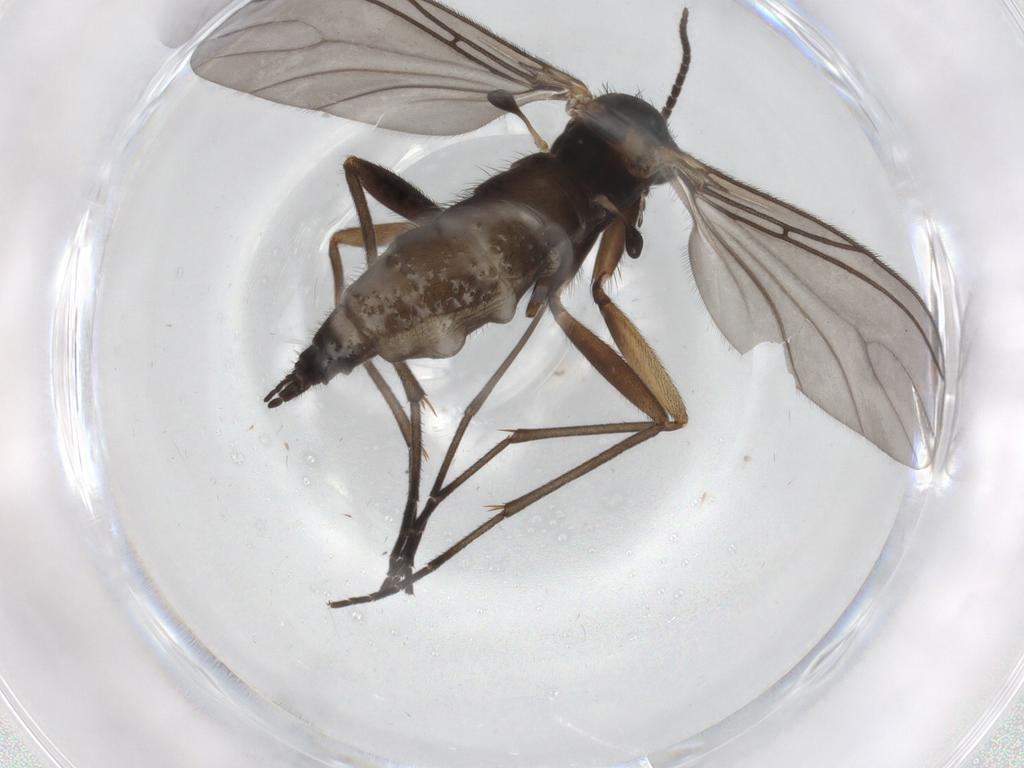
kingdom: Animalia
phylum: Arthropoda
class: Insecta
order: Diptera
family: Sciaridae
